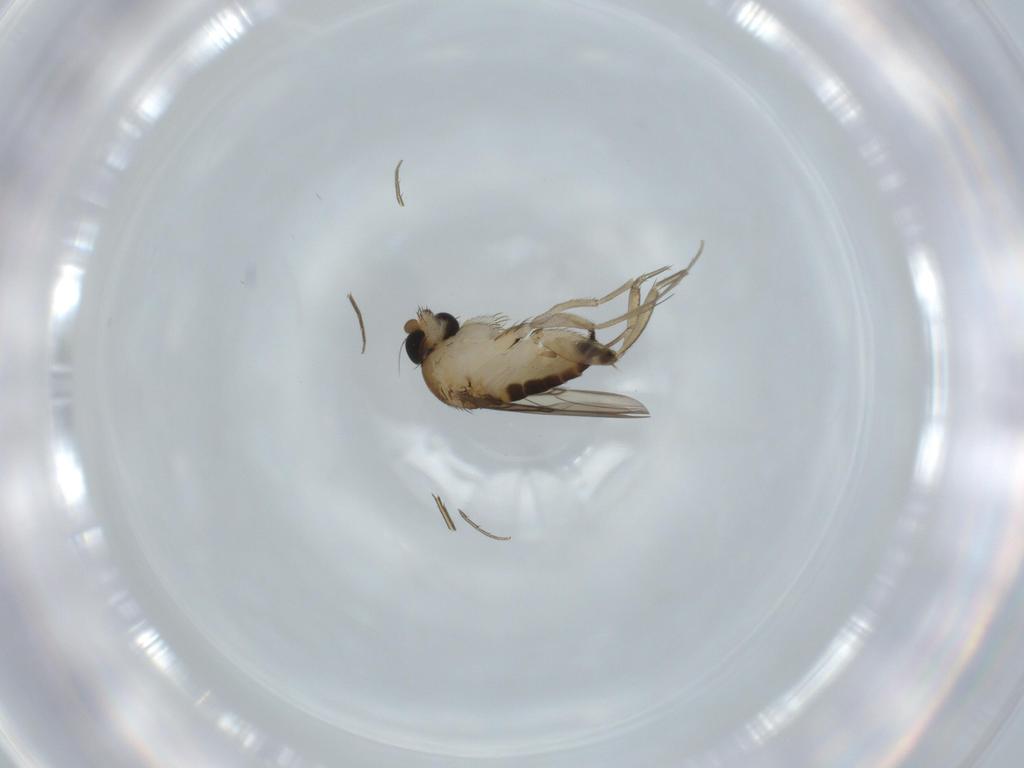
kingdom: Animalia
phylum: Arthropoda
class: Insecta
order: Diptera
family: Phoridae
